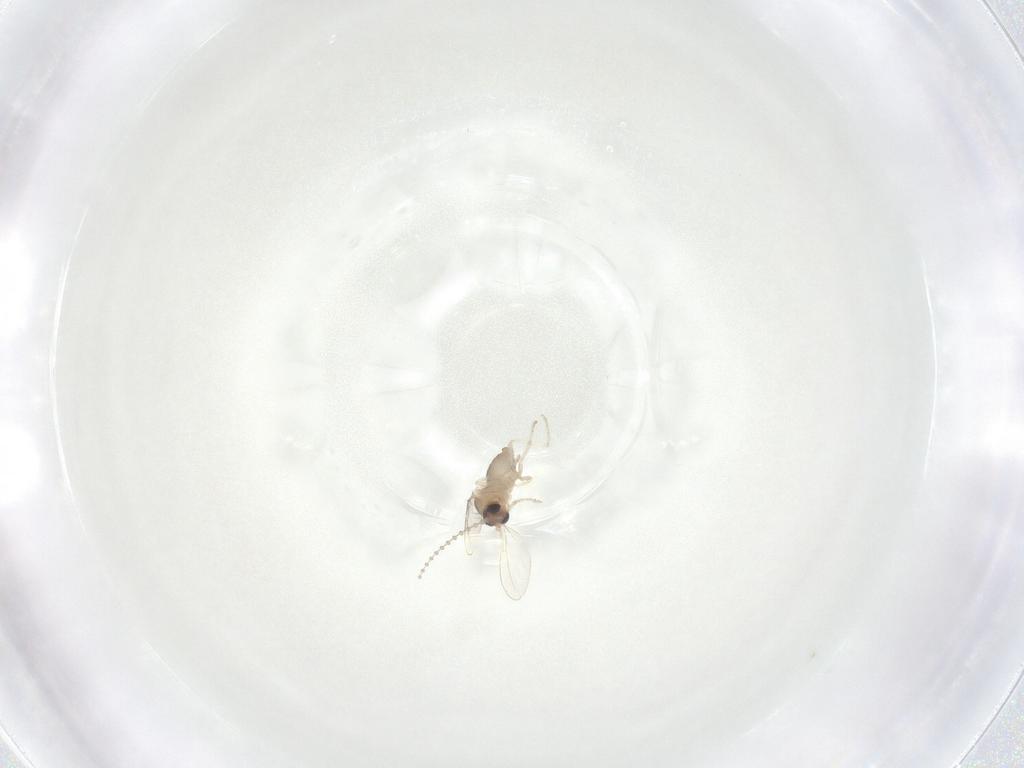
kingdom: Animalia
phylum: Arthropoda
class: Insecta
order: Diptera
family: Cecidomyiidae
